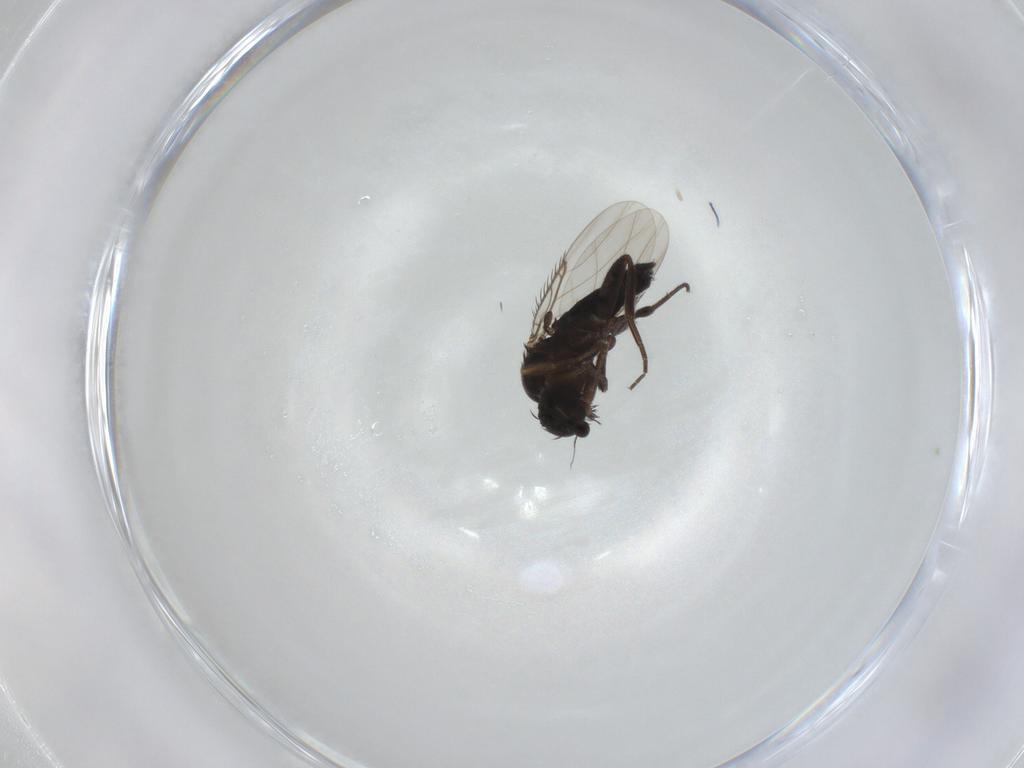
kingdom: Animalia
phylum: Arthropoda
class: Insecta
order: Diptera
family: Phoridae
